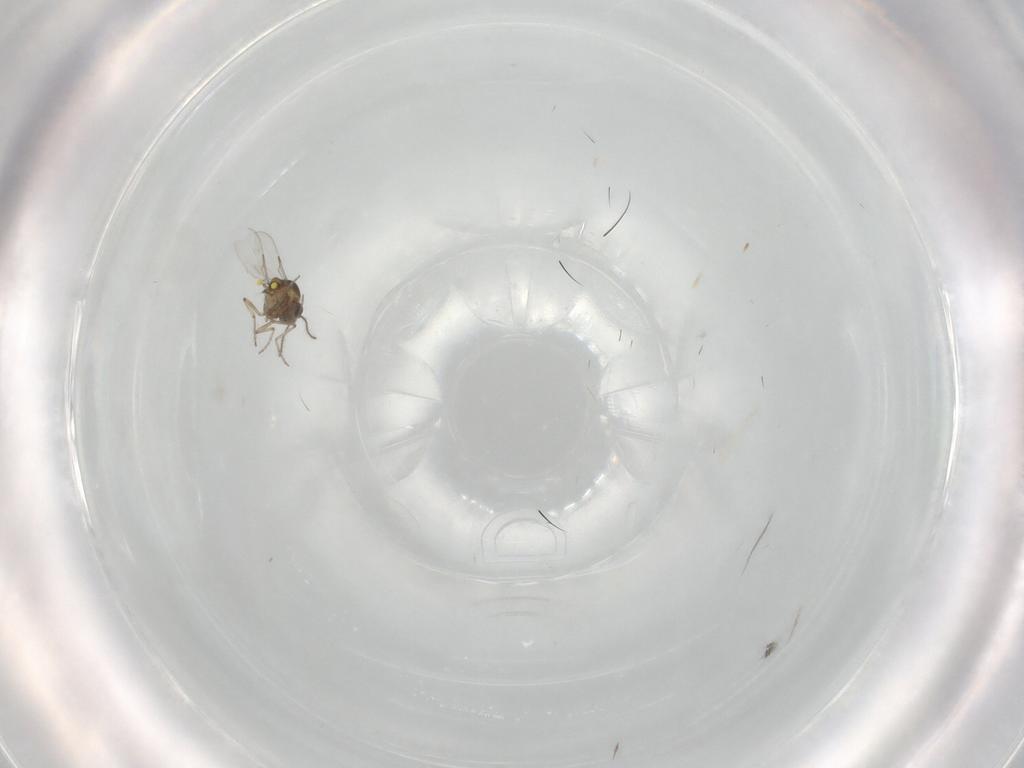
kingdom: Animalia
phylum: Arthropoda
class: Insecta
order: Diptera
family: Ceratopogonidae
